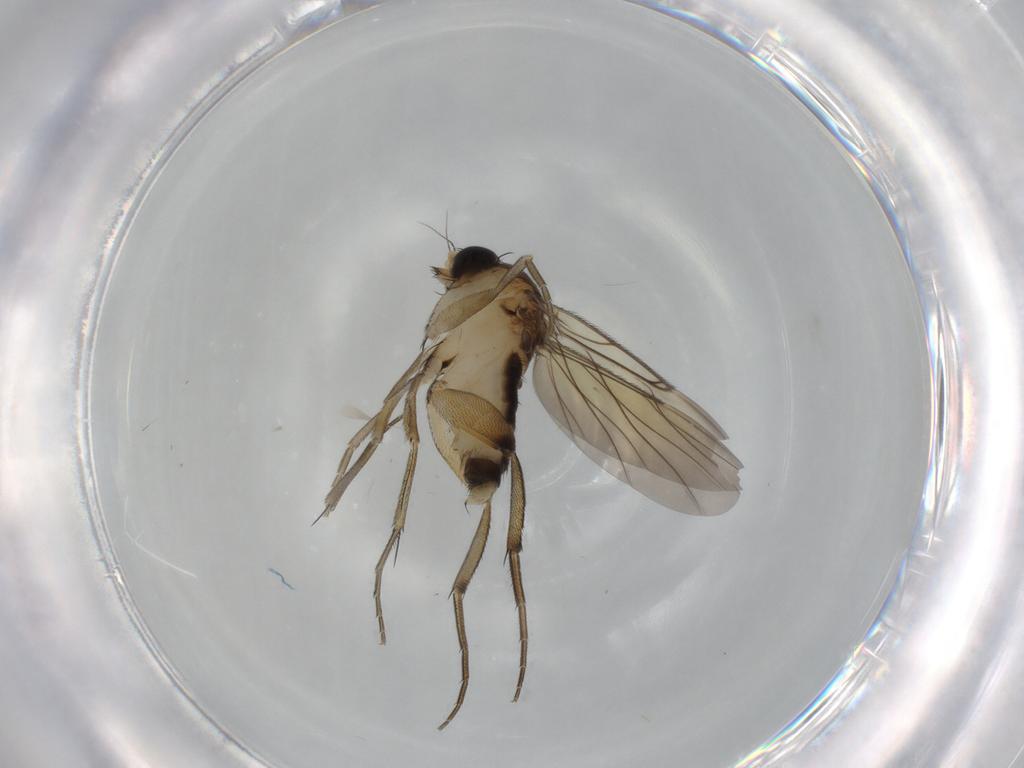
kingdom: Animalia
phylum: Arthropoda
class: Insecta
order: Diptera
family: Phoridae
